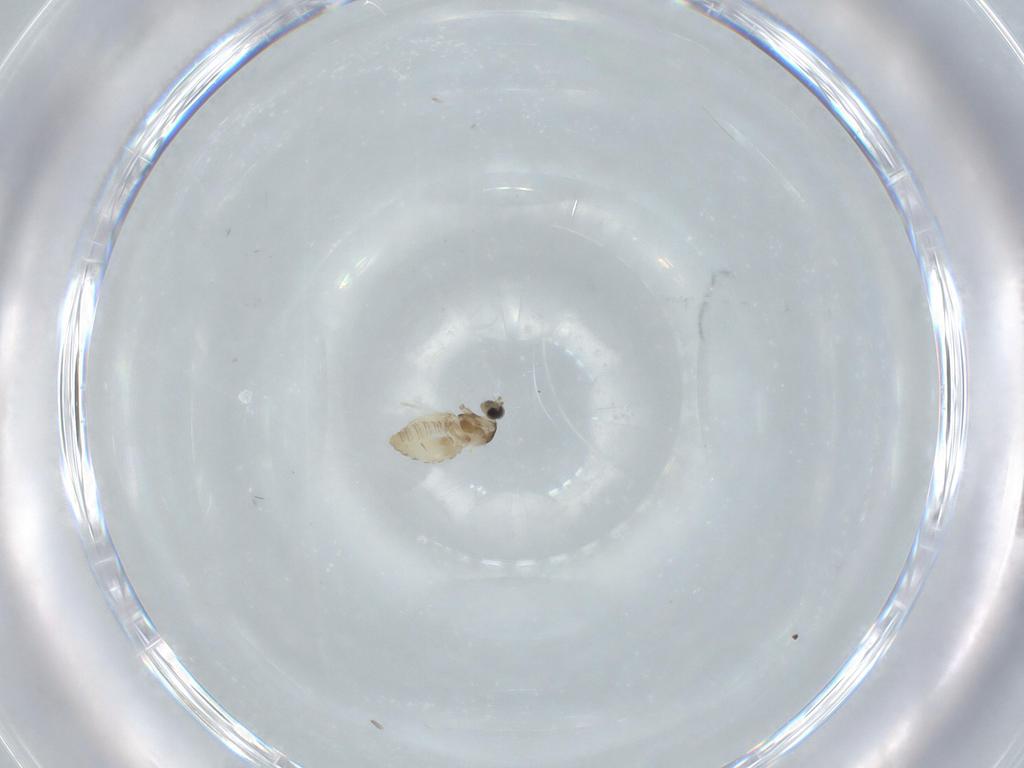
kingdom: Animalia
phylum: Arthropoda
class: Insecta
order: Diptera
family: Cecidomyiidae
